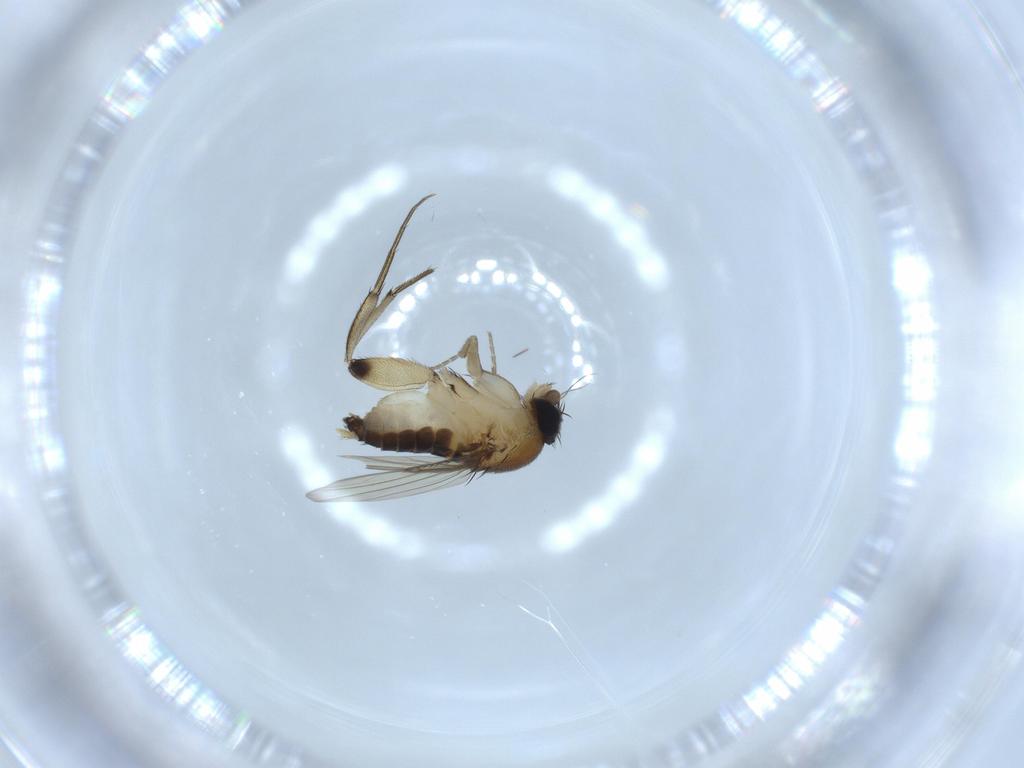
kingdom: Animalia
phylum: Arthropoda
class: Insecta
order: Diptera
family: Phoridae
